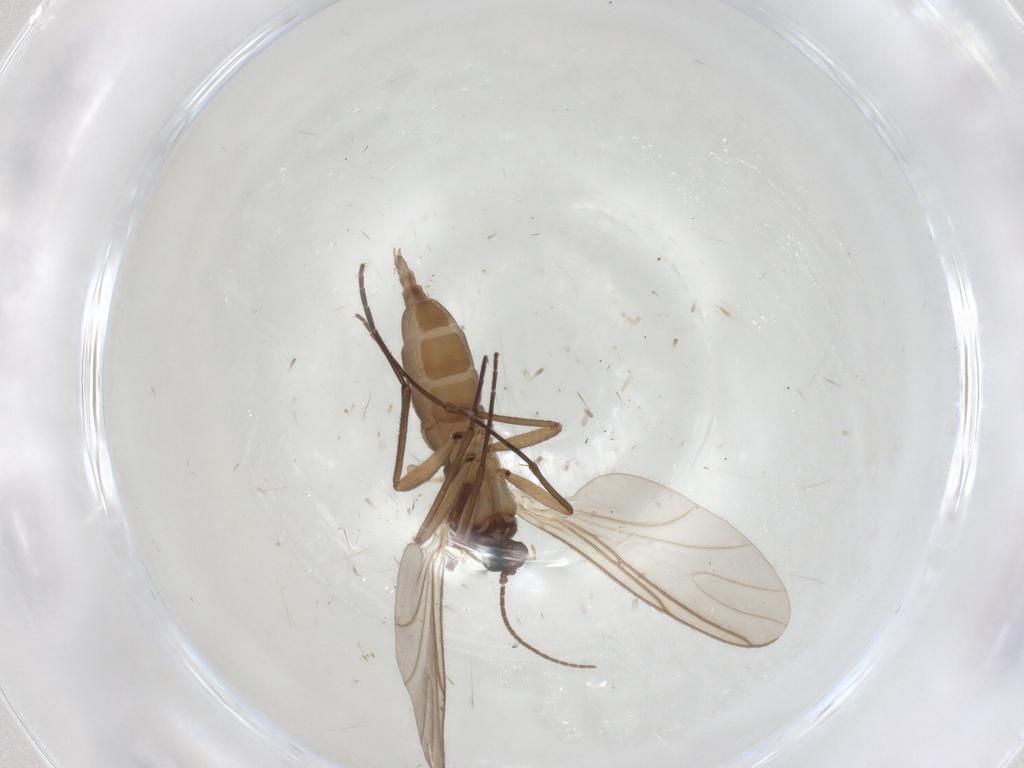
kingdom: Animalia
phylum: Arthropoda
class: Insecta
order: Diptera
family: Sciaridae
